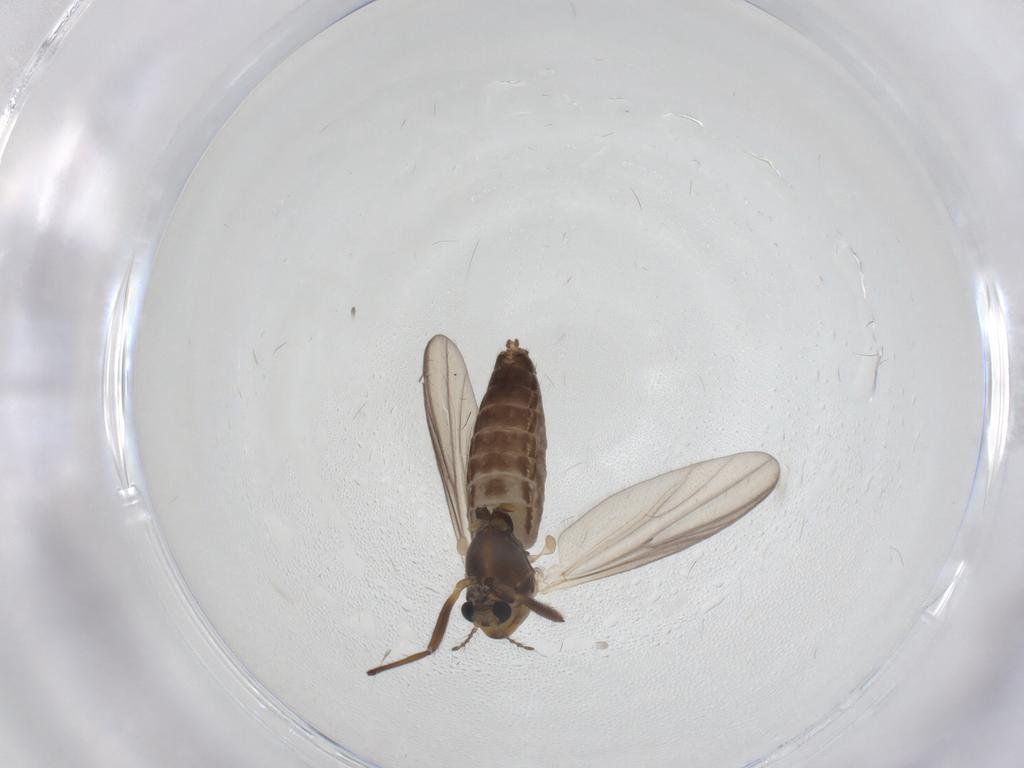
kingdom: Animalia
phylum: Arthropoda
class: Insecta
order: Diptera
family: Chironomidae
